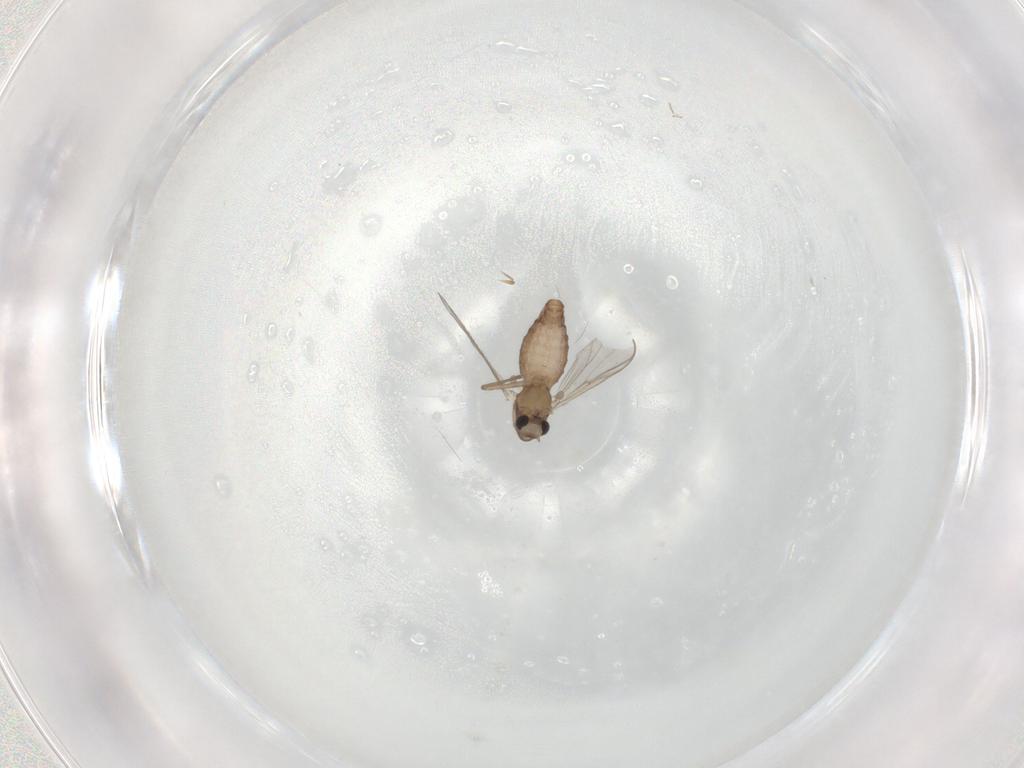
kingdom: Animalia
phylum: Arthropoda
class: Insecta
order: Diptera
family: Chironomidae
